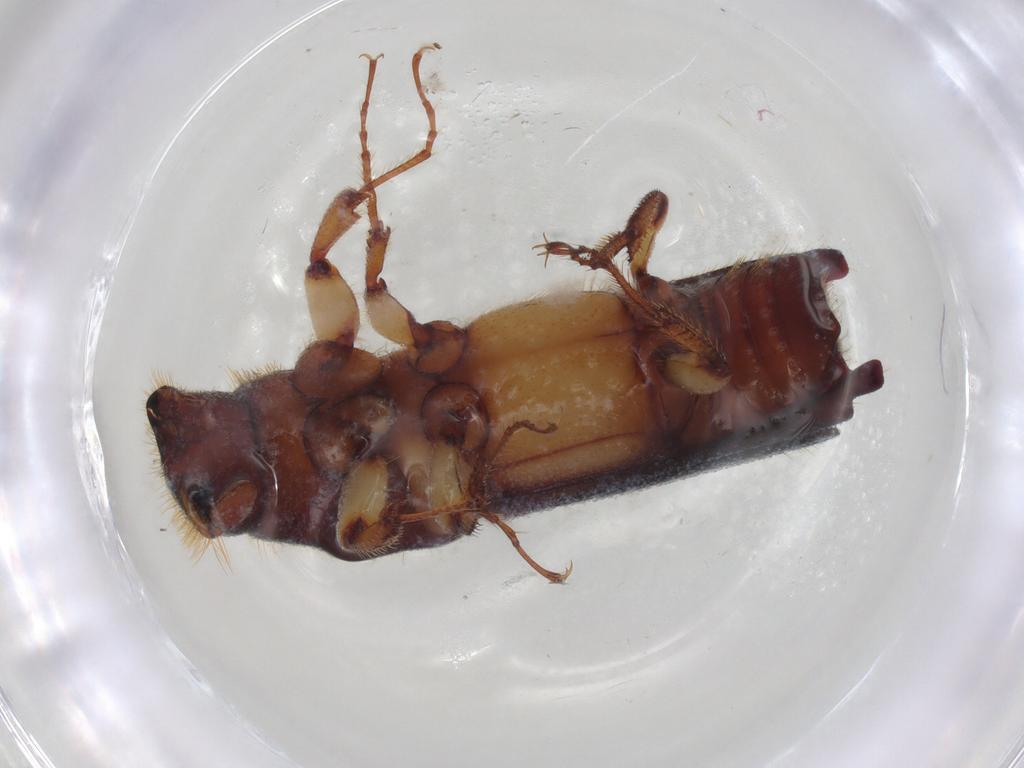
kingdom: Animalia
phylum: Arthropoda
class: Insecta
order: Coleoptera
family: Curculionidae
